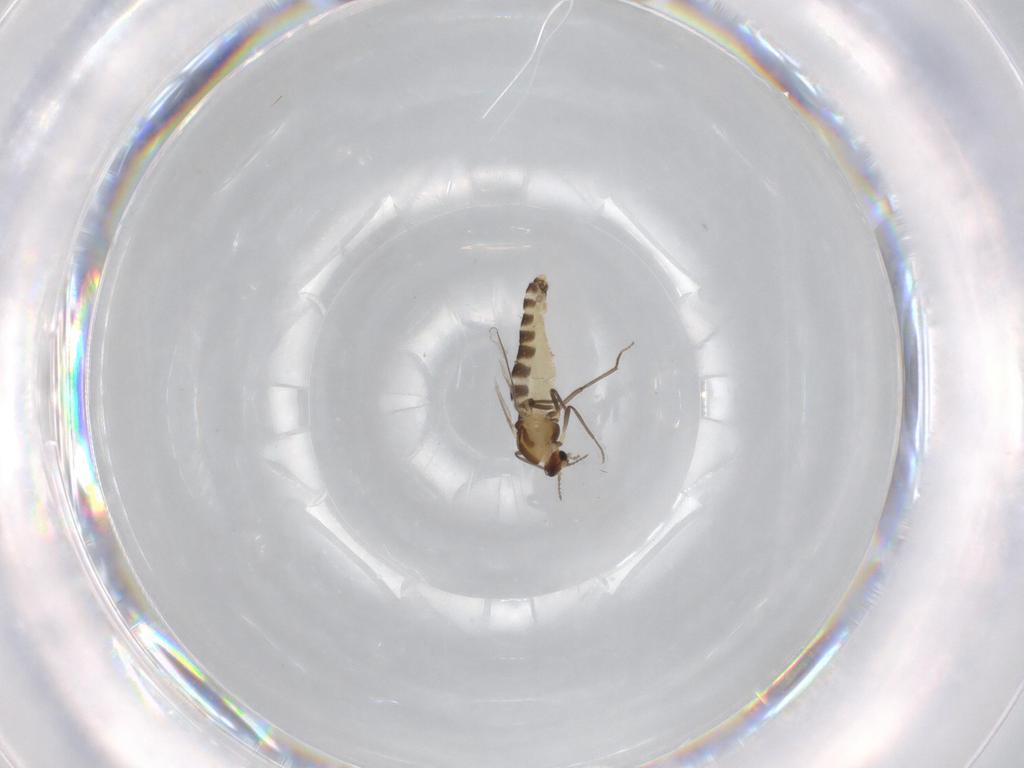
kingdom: Animalia
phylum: Arthropoda
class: Insecta
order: Diptera
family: Chironomidae
